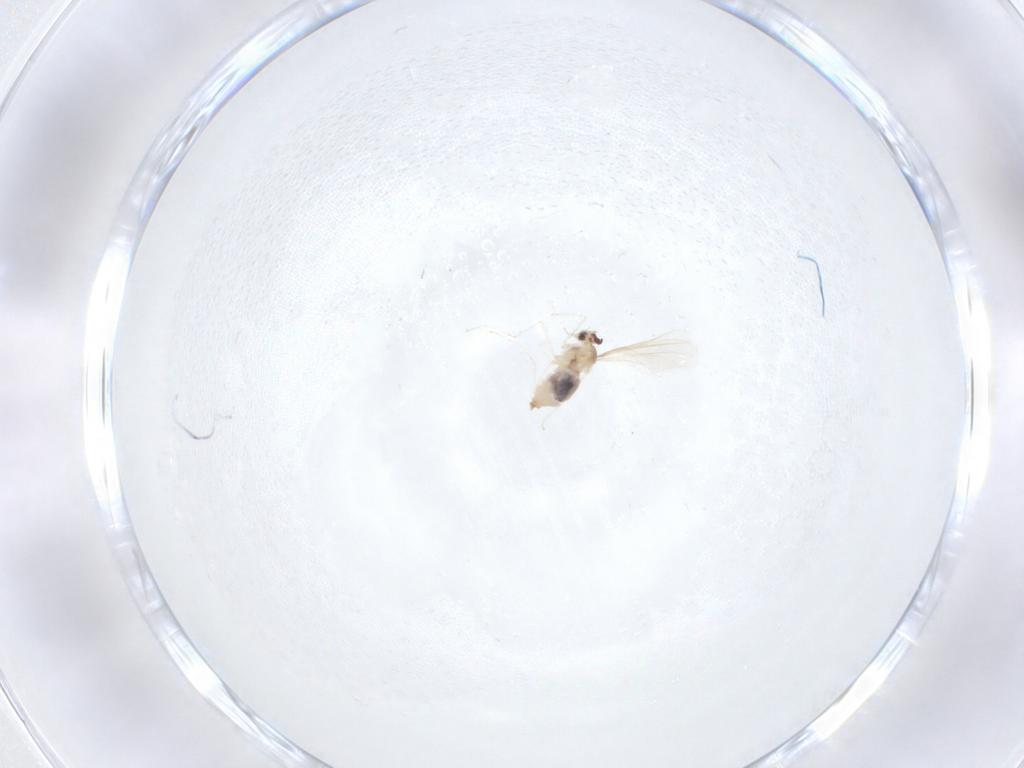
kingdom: Animalia
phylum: Arthropoda
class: Insecta
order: Diptera
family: Cecidomyiidae
